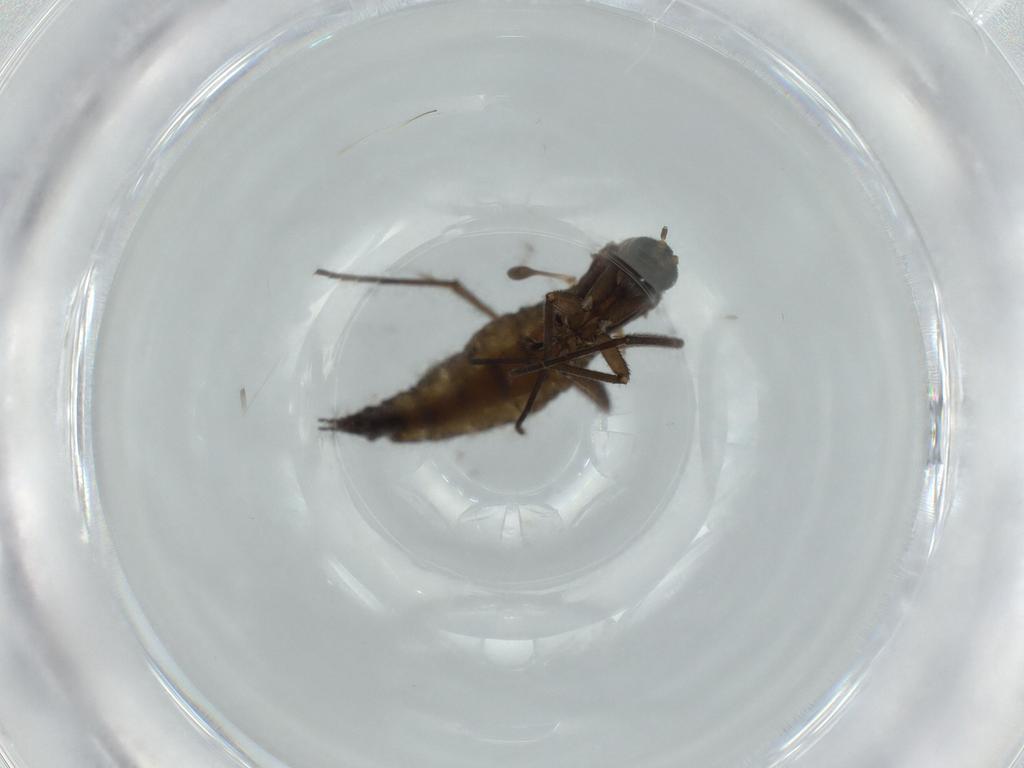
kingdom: Animalia
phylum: Arthropoda
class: Insecta
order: Diptera
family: Sciaridae
